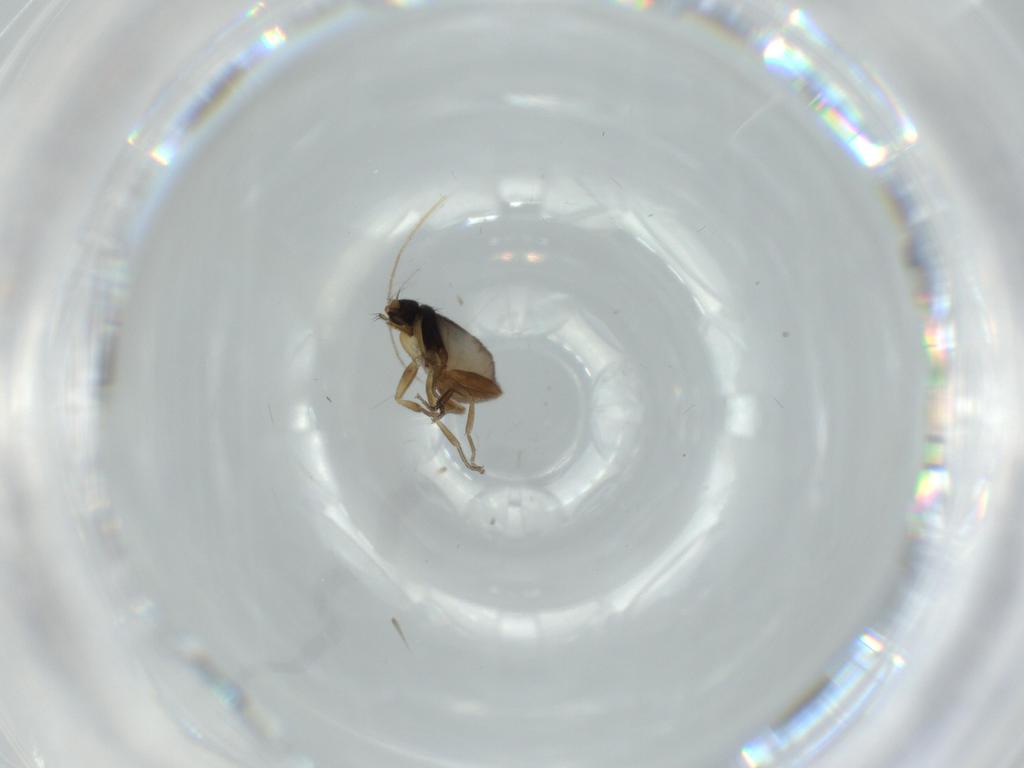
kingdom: Animalia
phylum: Arthropoda
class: Insecta
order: Diptera
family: Phoridae
